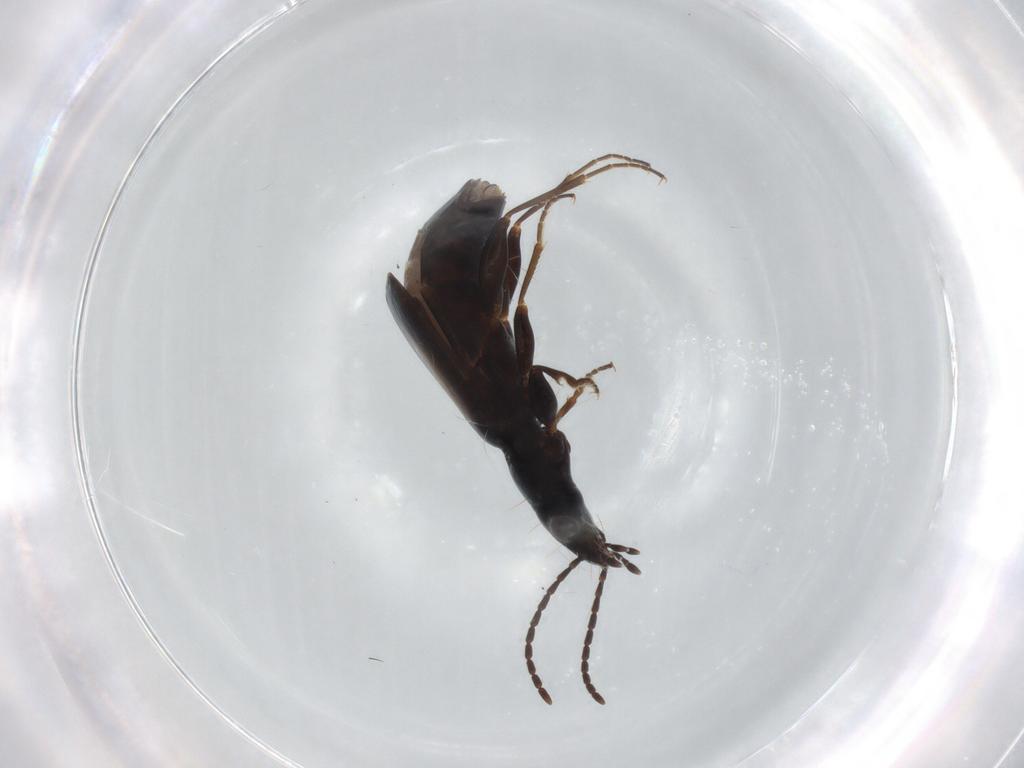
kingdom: Animalia
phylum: Arthropoda
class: Insecta
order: Coleoptera
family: Carabidae
